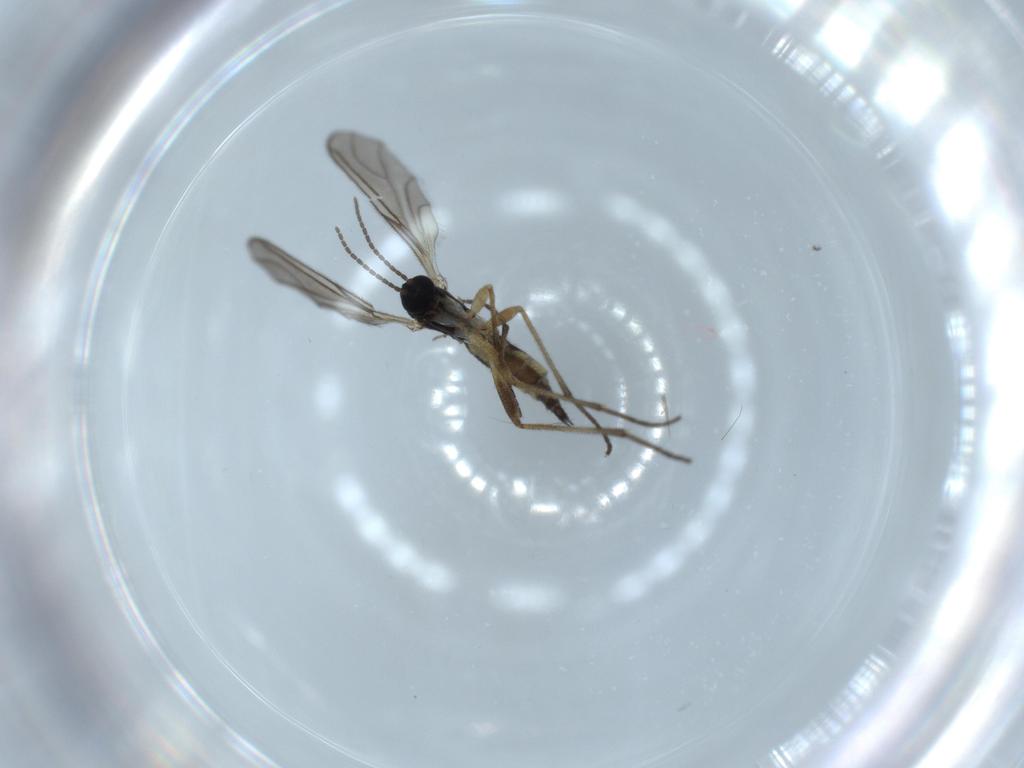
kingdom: Animalia
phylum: Arthropoda
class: Insecta
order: Diptera
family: Sciaridae
